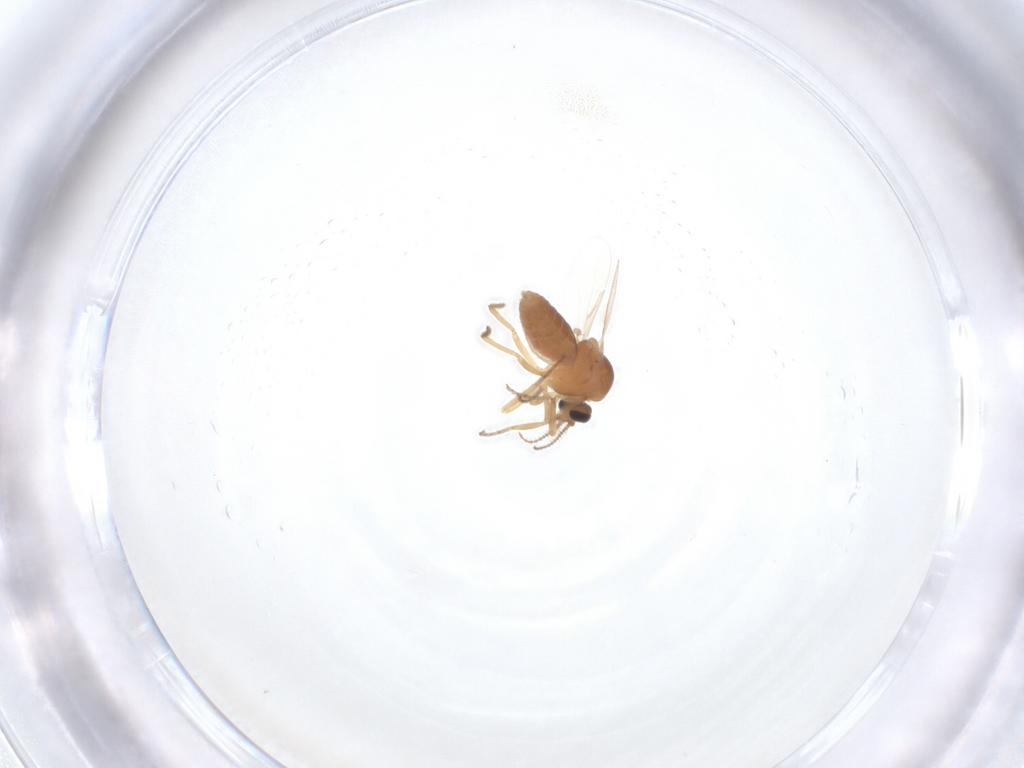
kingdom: Animalia
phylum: Arthropoda
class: Insecta
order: Diptera
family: Ceratopogonidae
